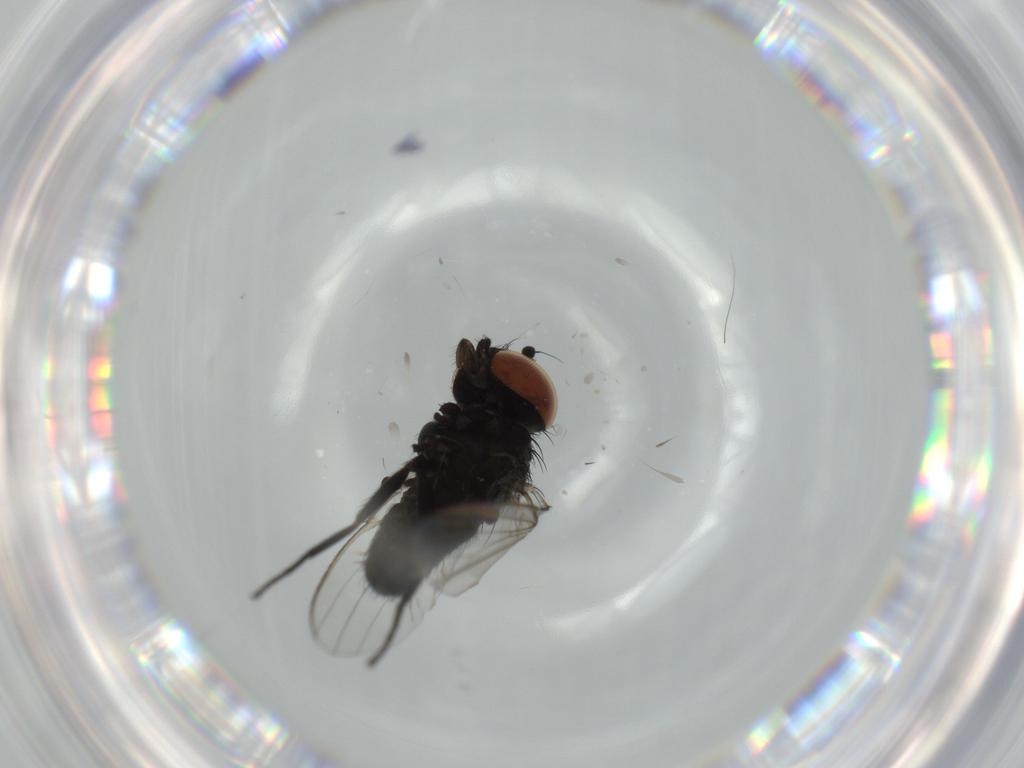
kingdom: Animalia
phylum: Arthropoda
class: Insecta
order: Diptera
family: Milichiidae
